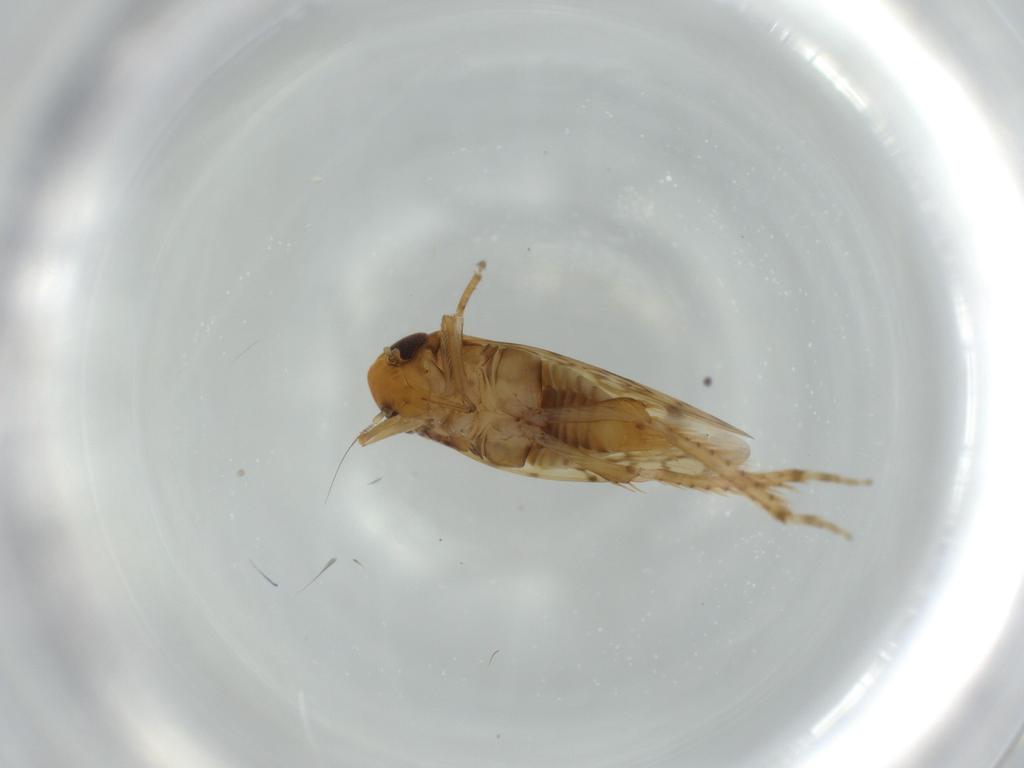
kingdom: Animalia
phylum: Arthropoda
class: Insecta
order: Hemiptera
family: Cicadellidae
